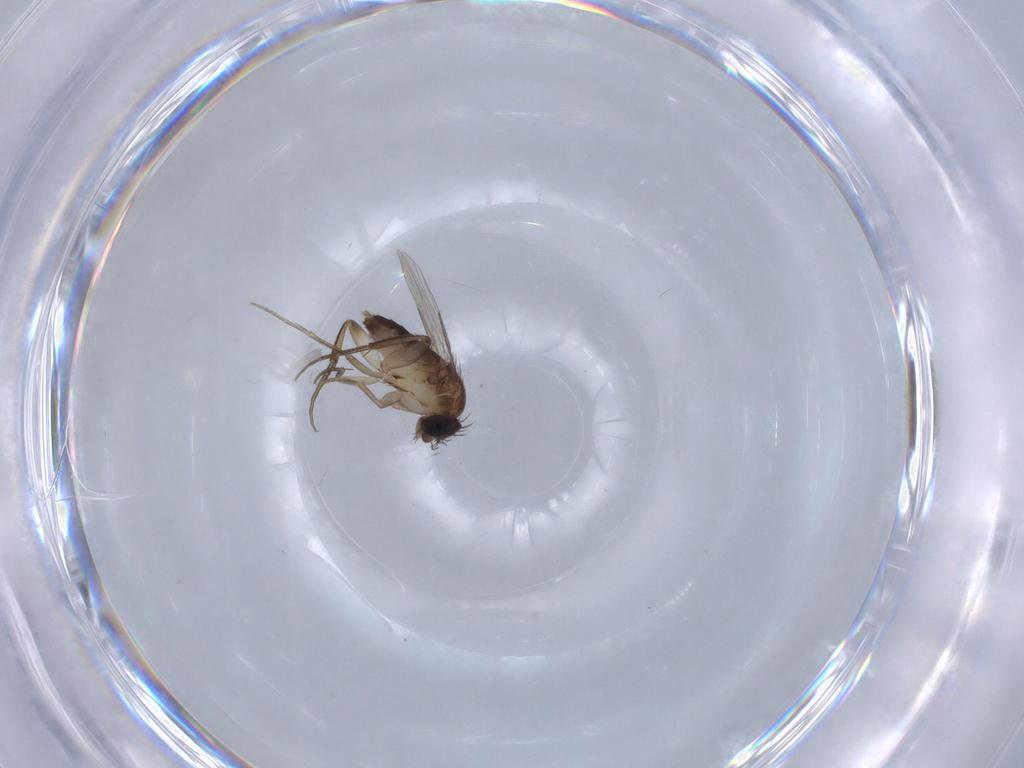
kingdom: Animalia
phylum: Arthropoda
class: Insecta
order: Diptera
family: Cecidomyiidae
